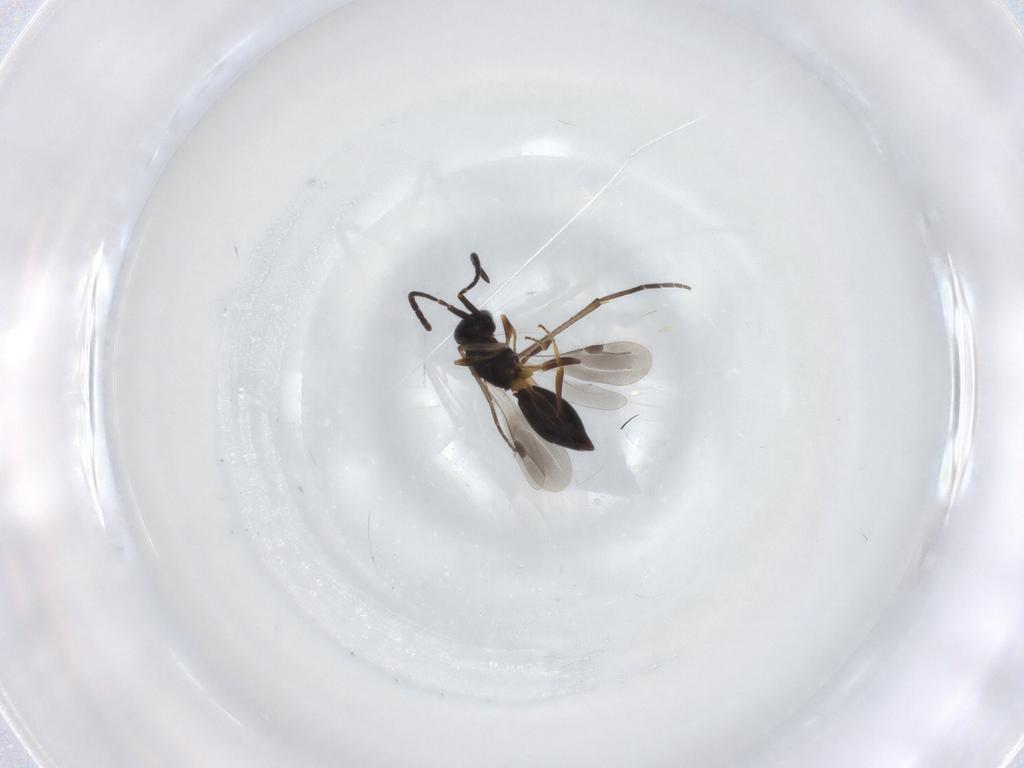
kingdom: Animalia
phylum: Arthropoda
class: Insecta
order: Hymenoptera
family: Megaspilidae
